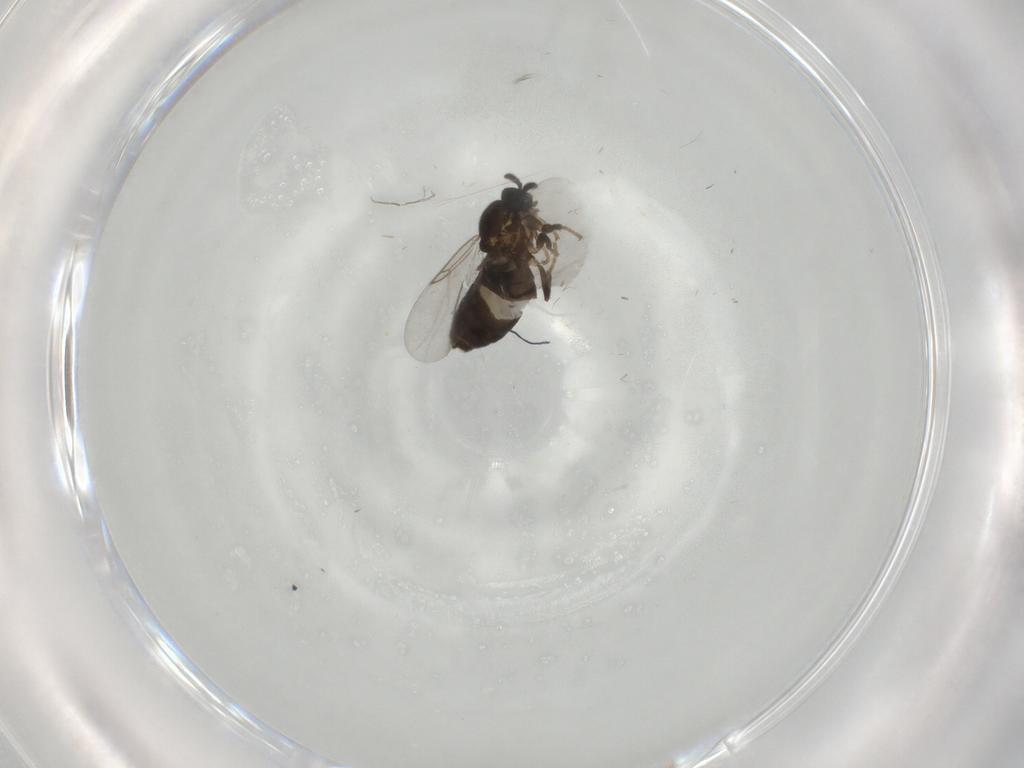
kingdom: Animalia
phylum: Arthropoda
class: Insecta
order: Diptera
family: Scatopsidae
